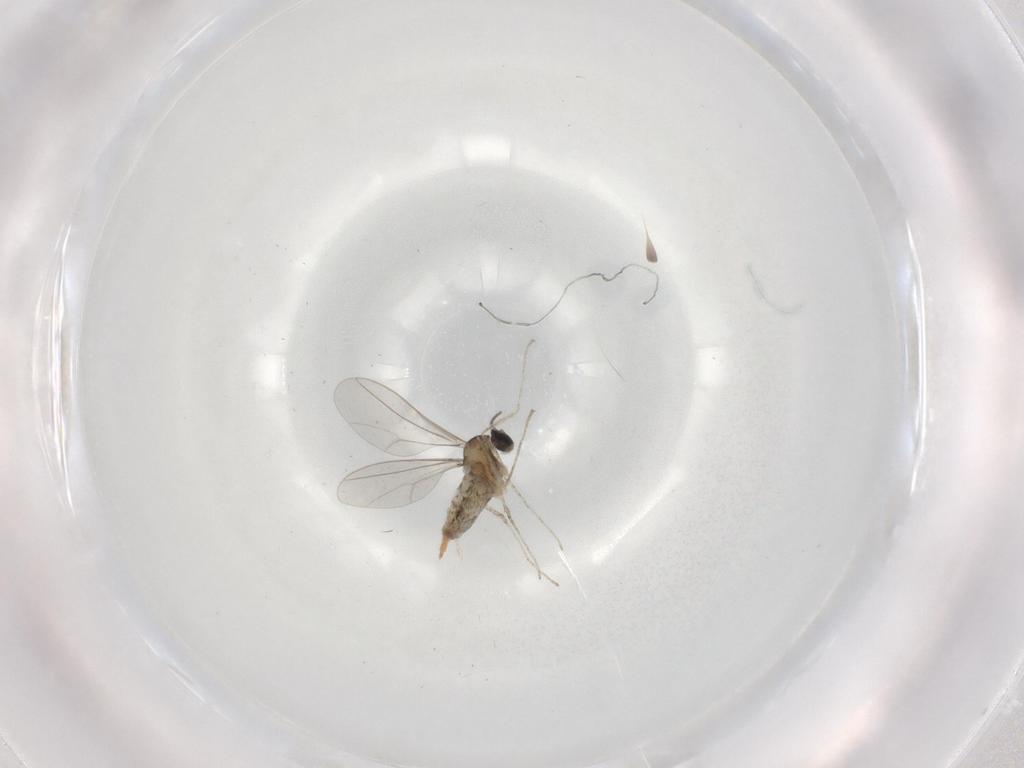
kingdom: Animalia
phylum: Arthropoda
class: Insecta
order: Diptera
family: Cecidomyiidae
